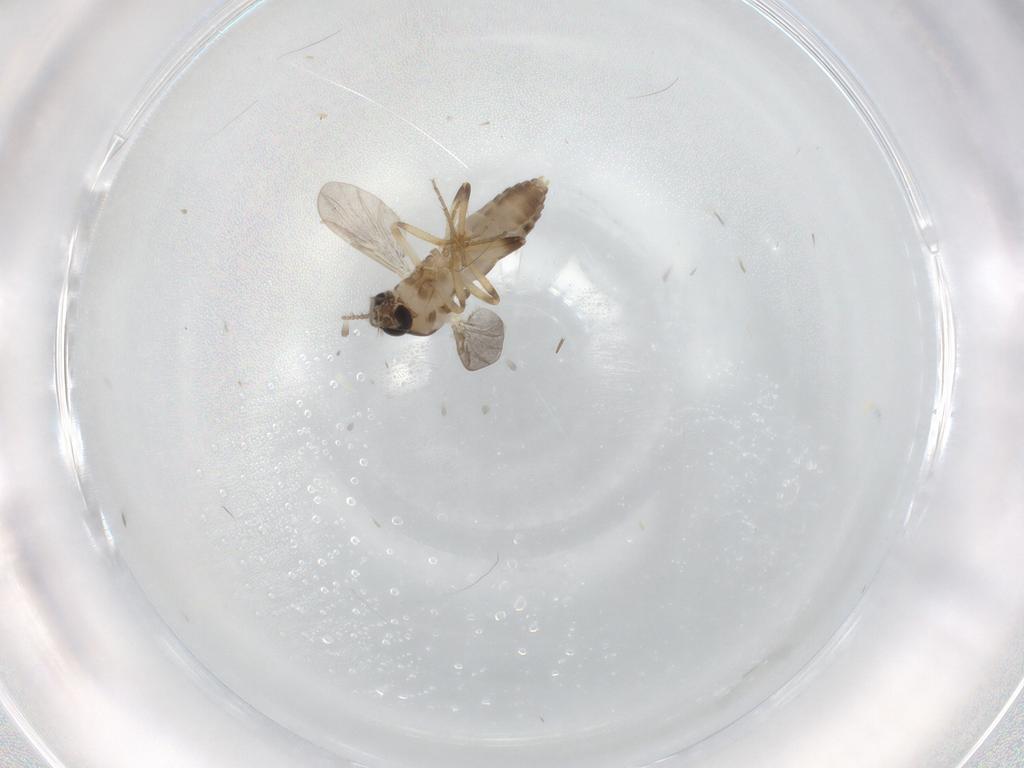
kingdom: Animalia
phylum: Arthropoda
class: Insecta
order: Diptera
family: Ceratopogonidae
